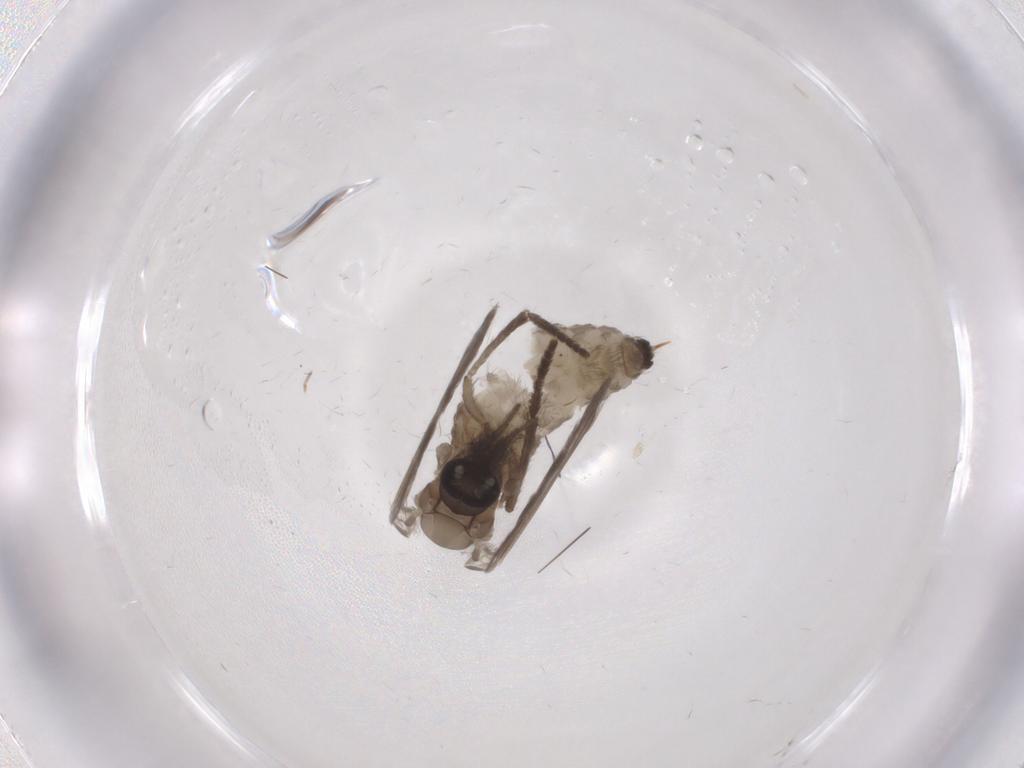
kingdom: Animalia
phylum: Arthropoda
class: Insecta
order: Diptera
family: Psychodidae
